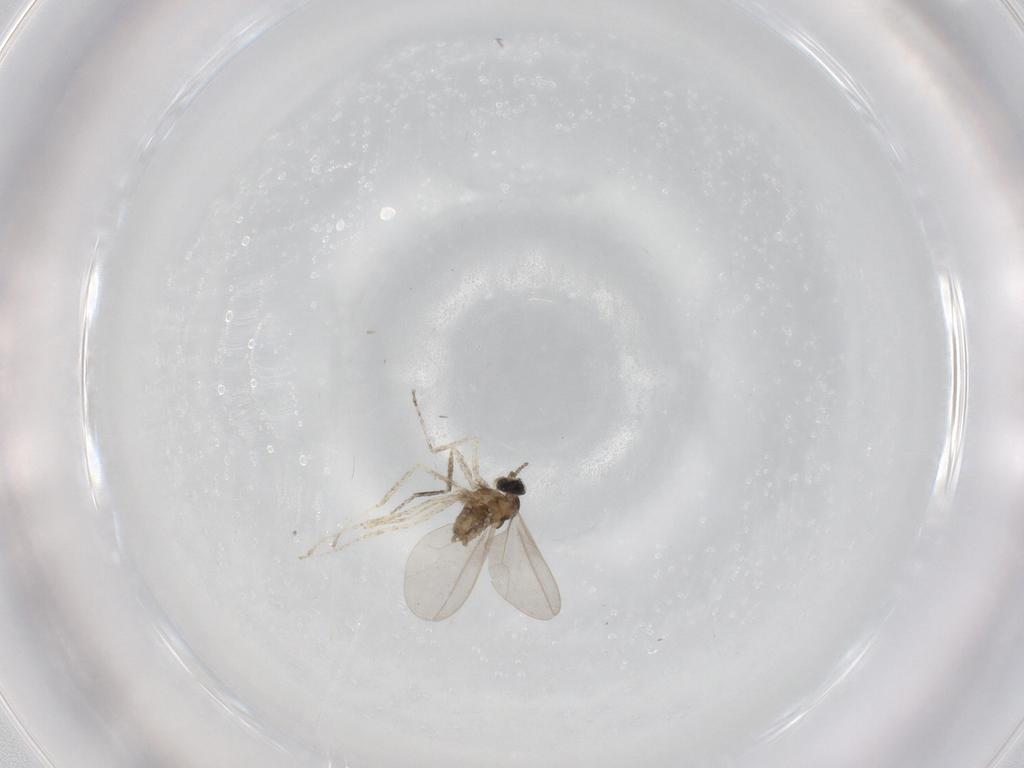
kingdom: Animalia
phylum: Arthropoda
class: Insecta
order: Diptera
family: Cecidomyiidae
